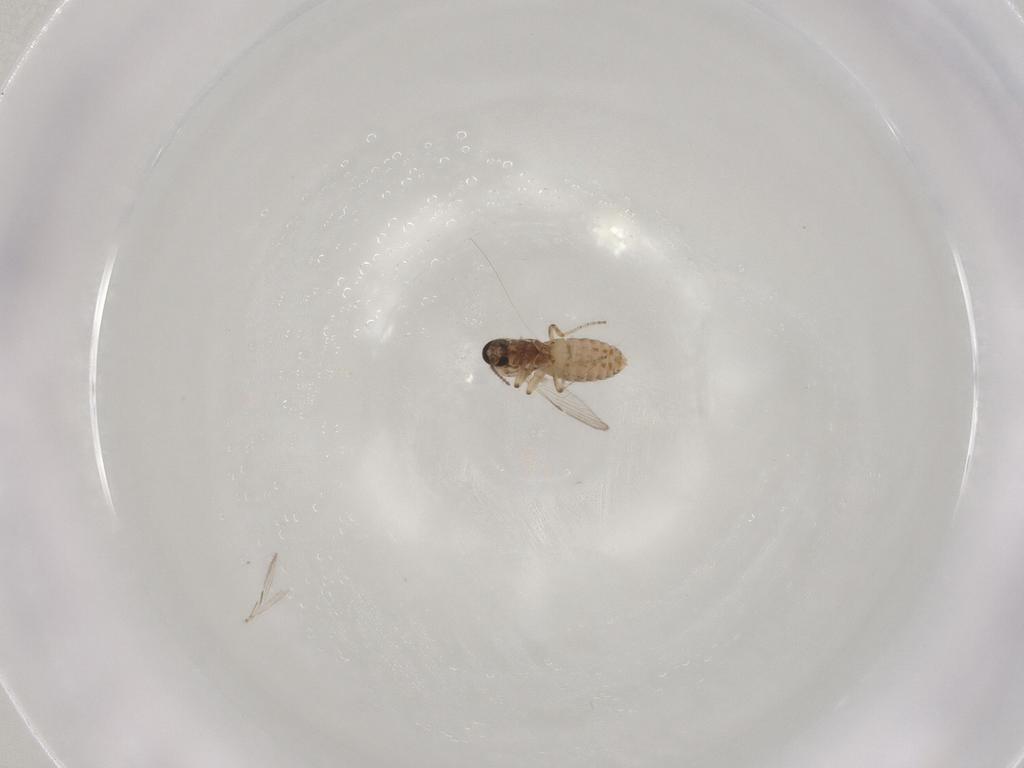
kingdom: Animalia
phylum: Arthropoda
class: Insecta
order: Diptera
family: Ceratopogonidae
